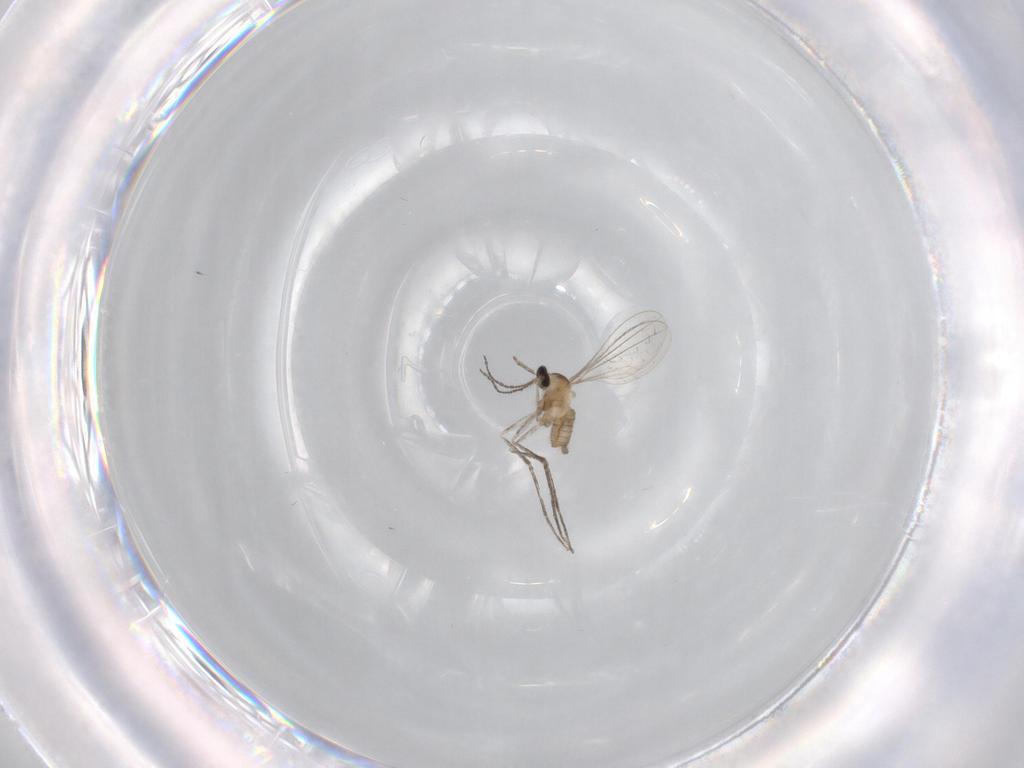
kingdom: Animalia
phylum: Arthropoda
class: Insecta
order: Diptera
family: Cecidomyiidae
